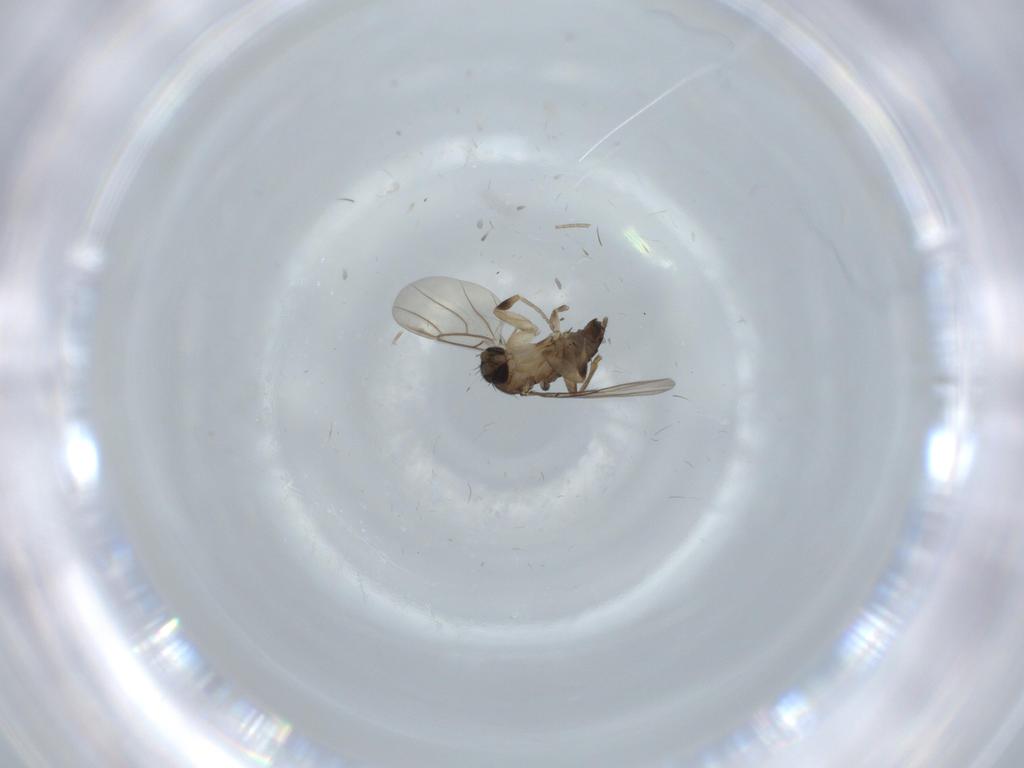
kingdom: Animalia
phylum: Arthropoda
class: Insecta
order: Diptera
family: Phoridae
